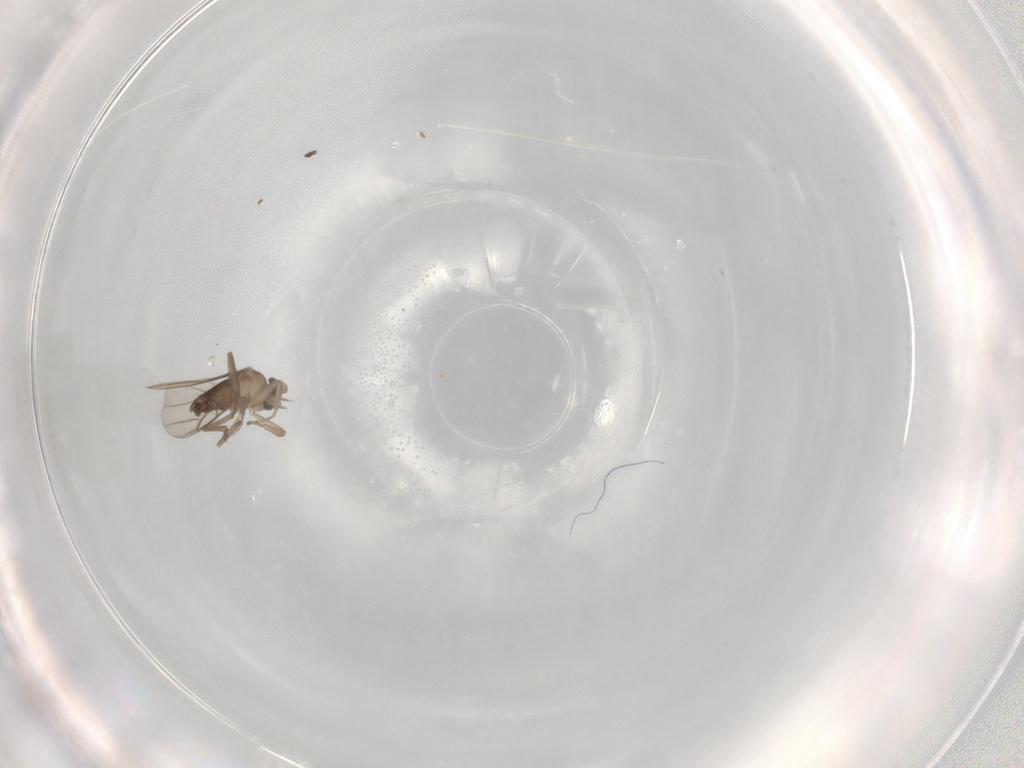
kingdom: Animalia
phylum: Arthropoda
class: Insecta
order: Diptera
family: Phoridae
